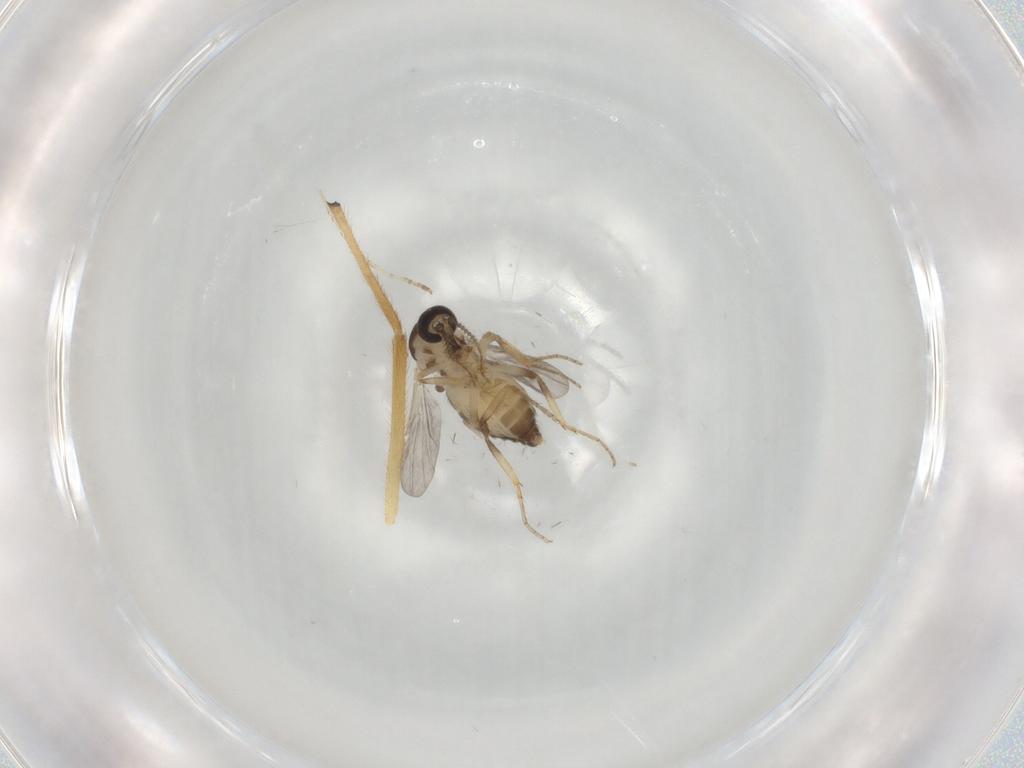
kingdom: Animalia
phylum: Arthropoda
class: Insecta
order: Diptera
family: Ceratopogonidae
